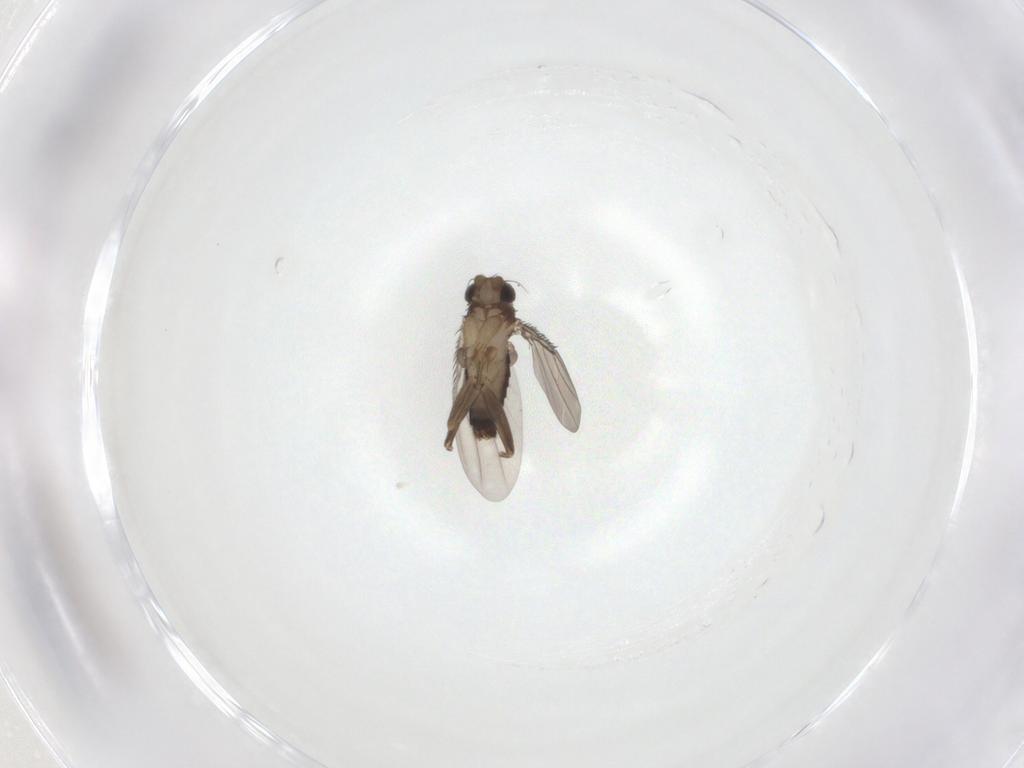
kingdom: Animalia
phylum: Arthropoda
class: Insecta
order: Diptera
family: Phoridae
